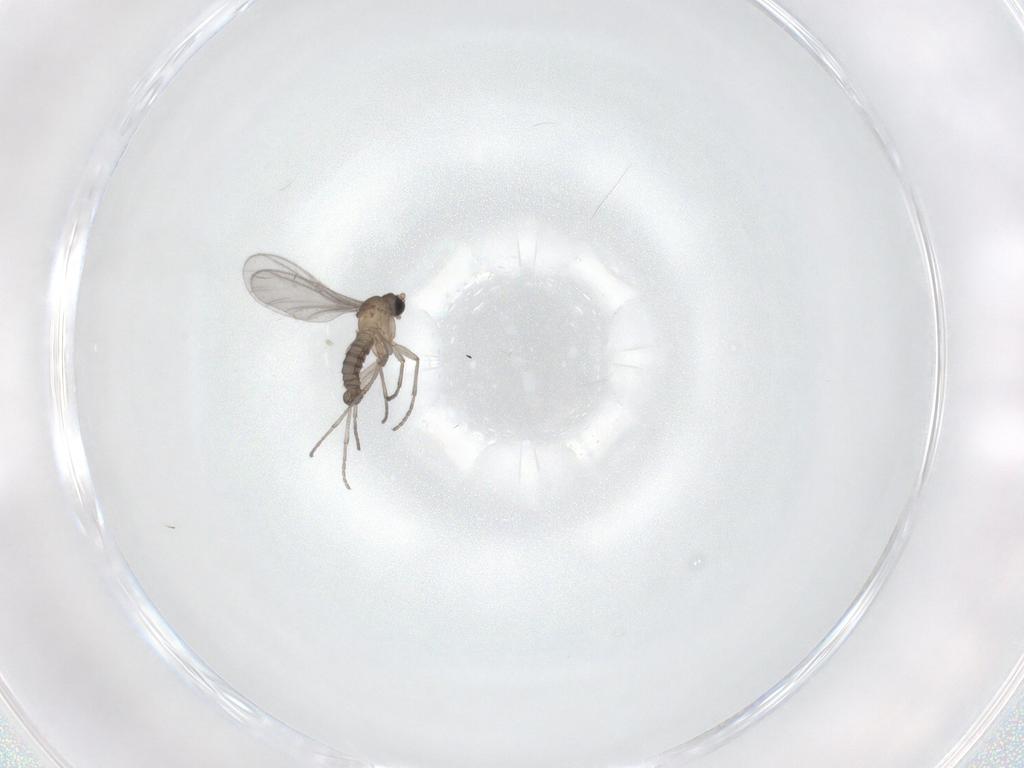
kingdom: Animalia
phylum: Arthropoda
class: Insecta
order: Diptera
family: Sciaridae
